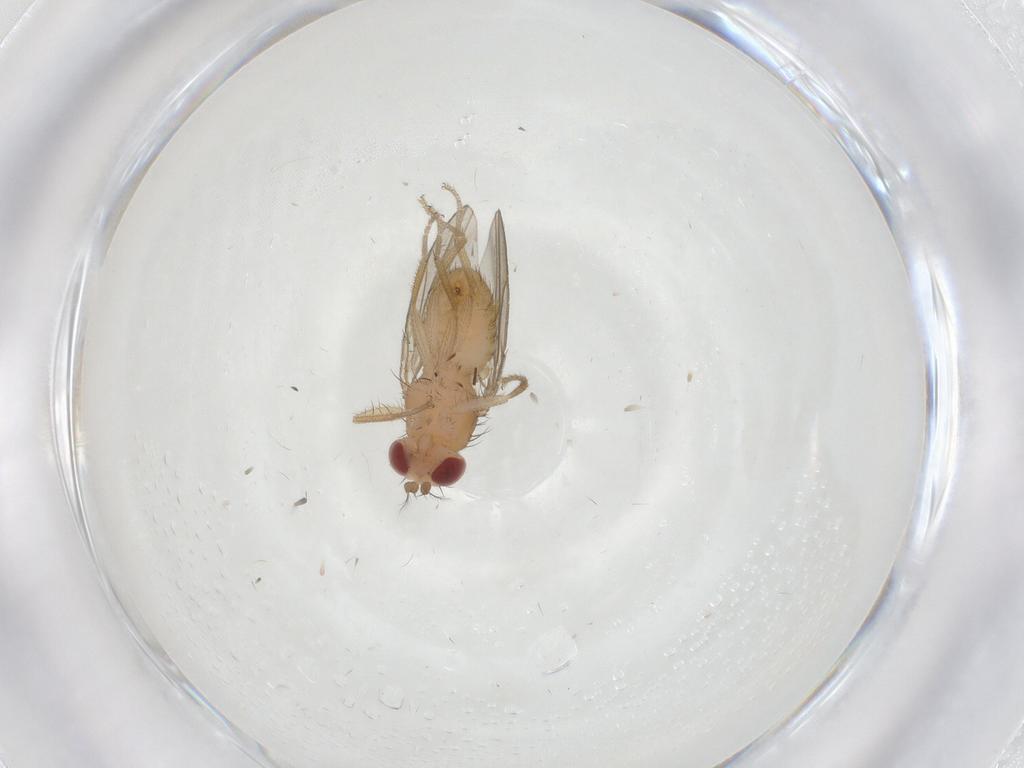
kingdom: Animalia
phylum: Arthropoda
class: Insecta
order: Diptera
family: Drosophilidae
